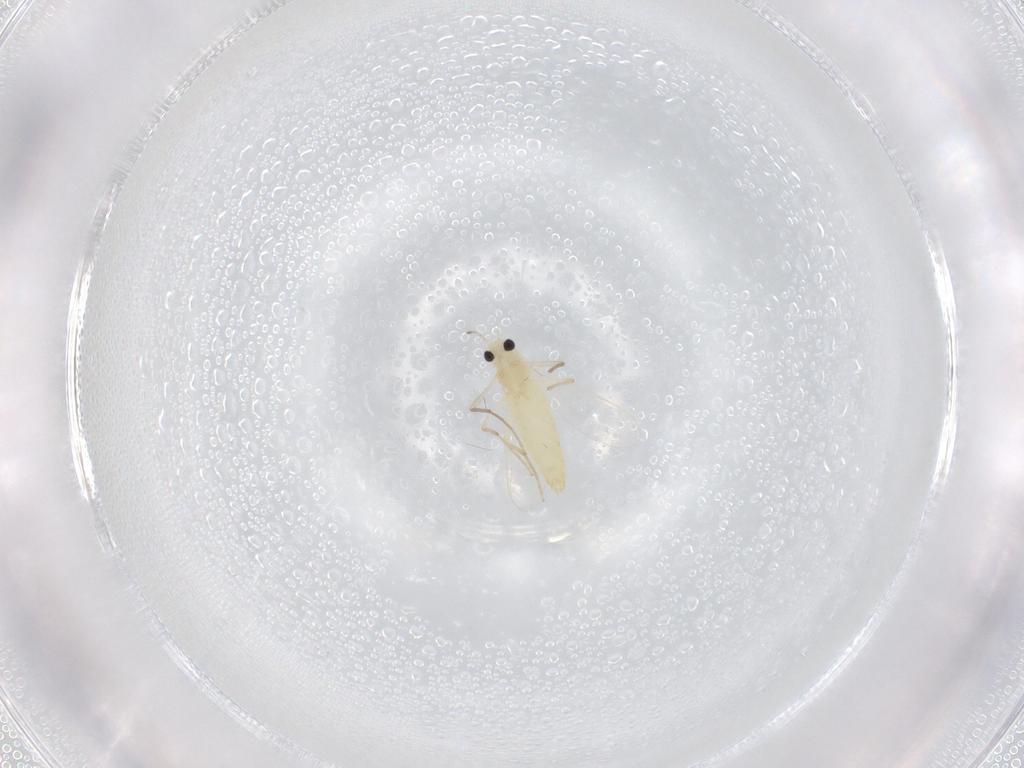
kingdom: Animalia
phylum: Arthropoda
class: Insecta
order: Diptera
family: Chironomidae
